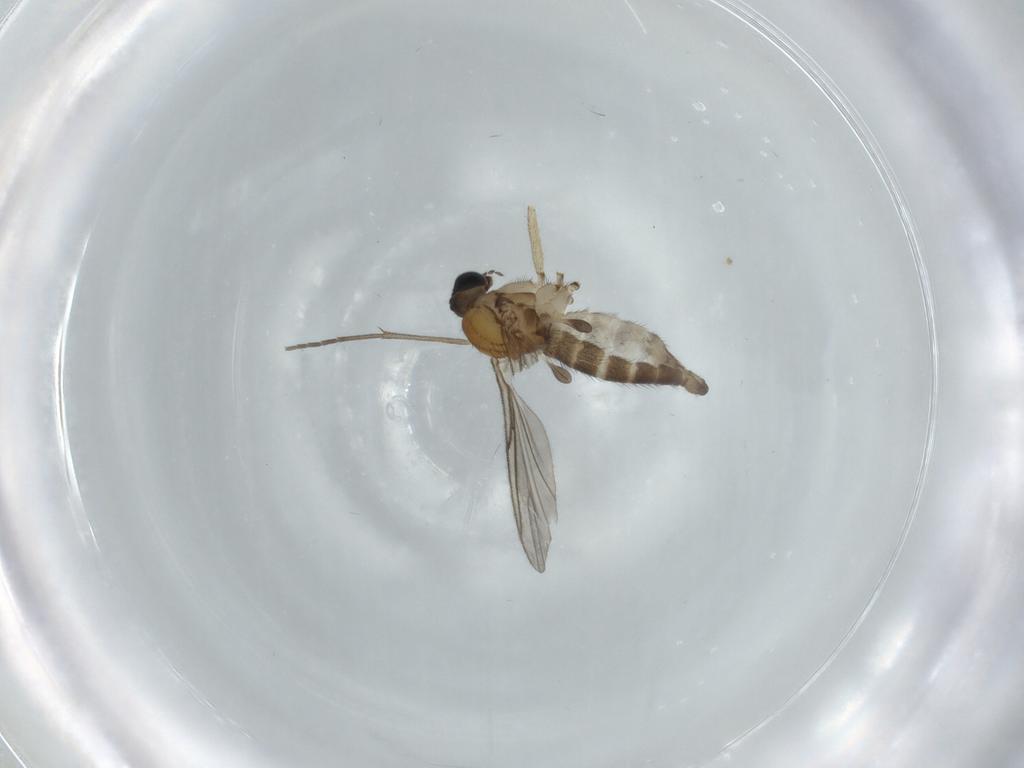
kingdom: Animalia
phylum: Arthropoda
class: Insecta
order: Diptera
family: Sciaridae
